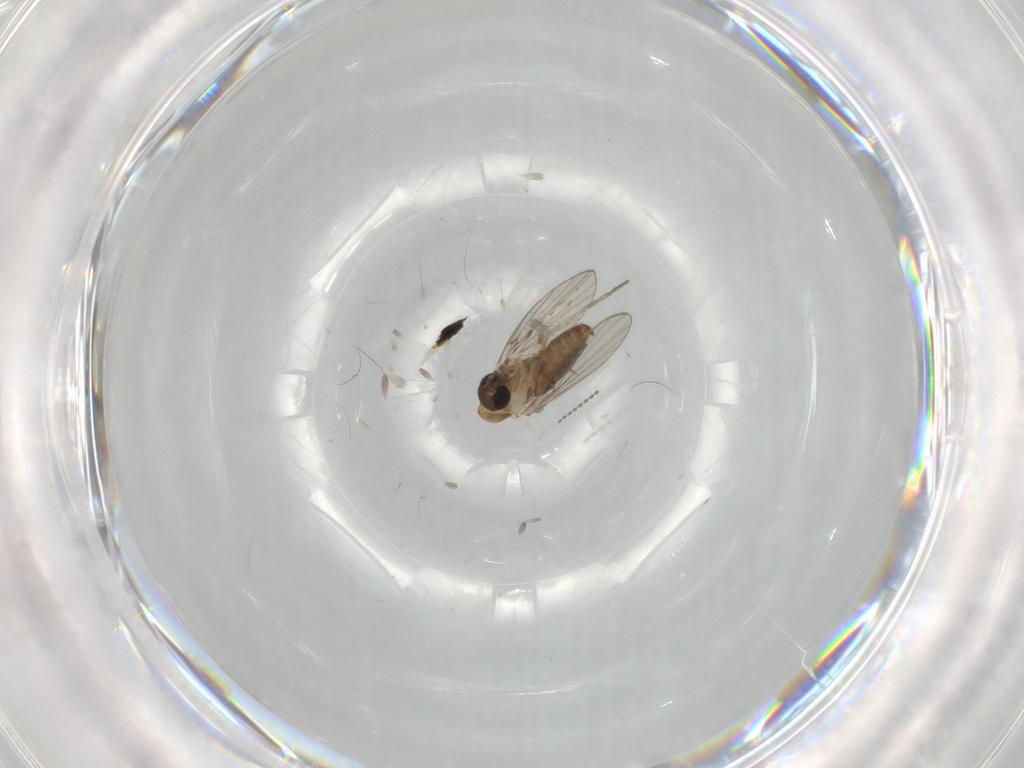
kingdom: Animalia
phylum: Arthropoda
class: Insecta
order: Diptera
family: Psychodidae
